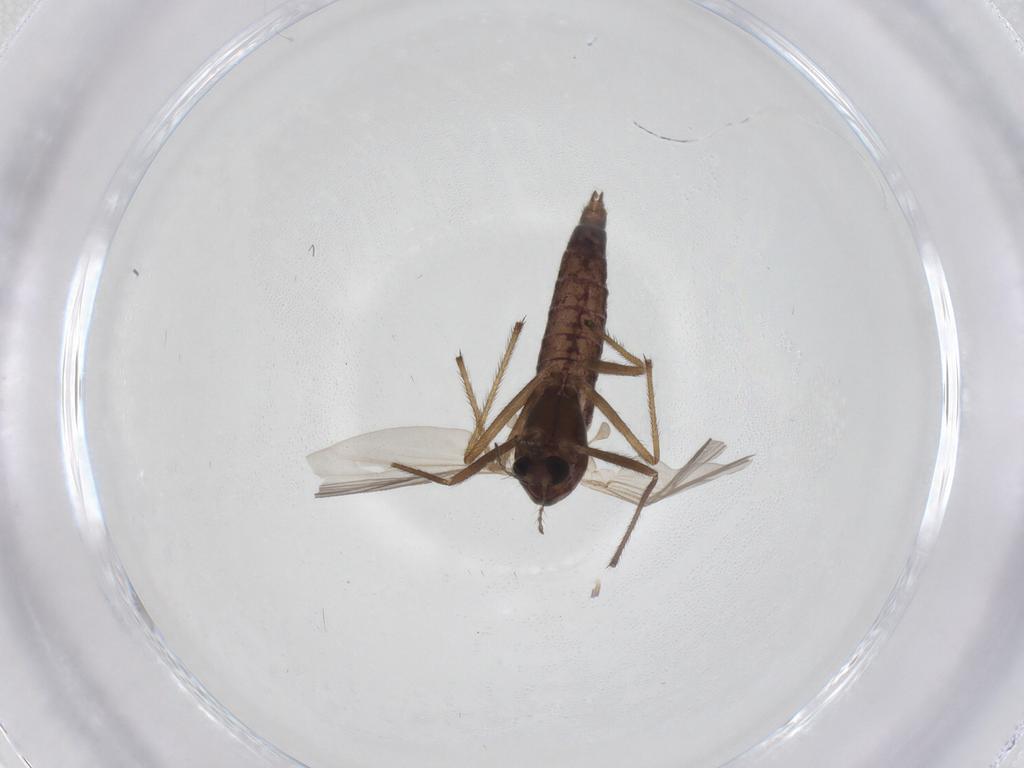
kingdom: Animalia
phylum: Arthropoda
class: Insecta
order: Diptera
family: Chironomidae
